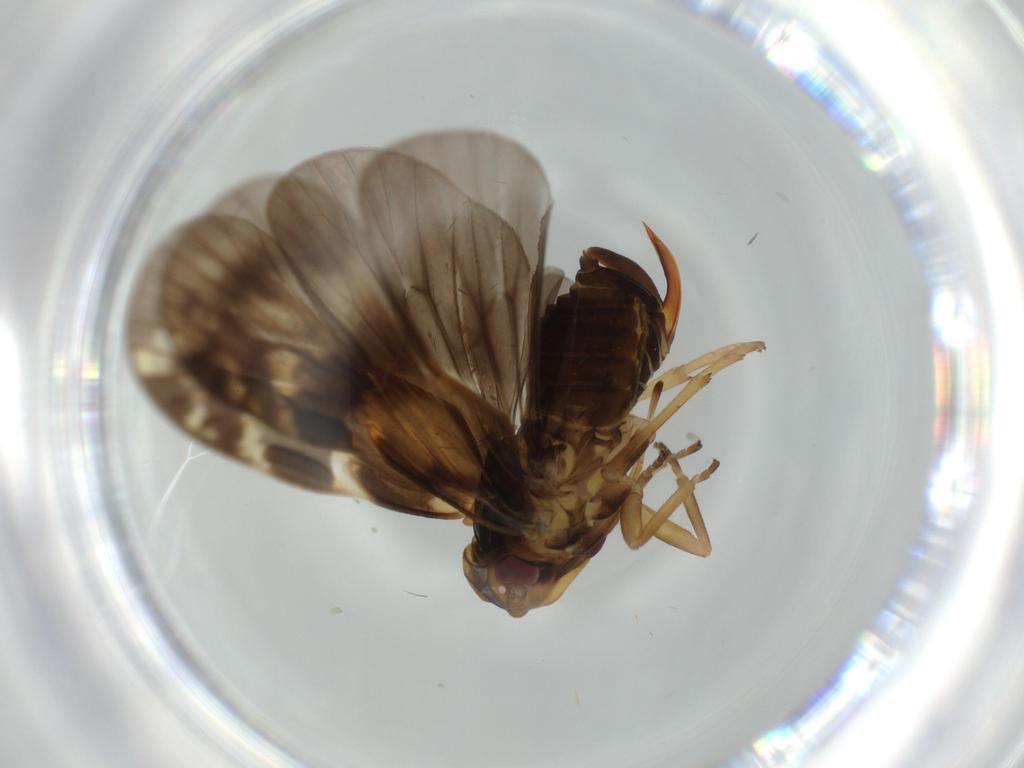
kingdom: Animalia
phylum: Arthropoda
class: Insecta
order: Hemiptera
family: Cixiidae
